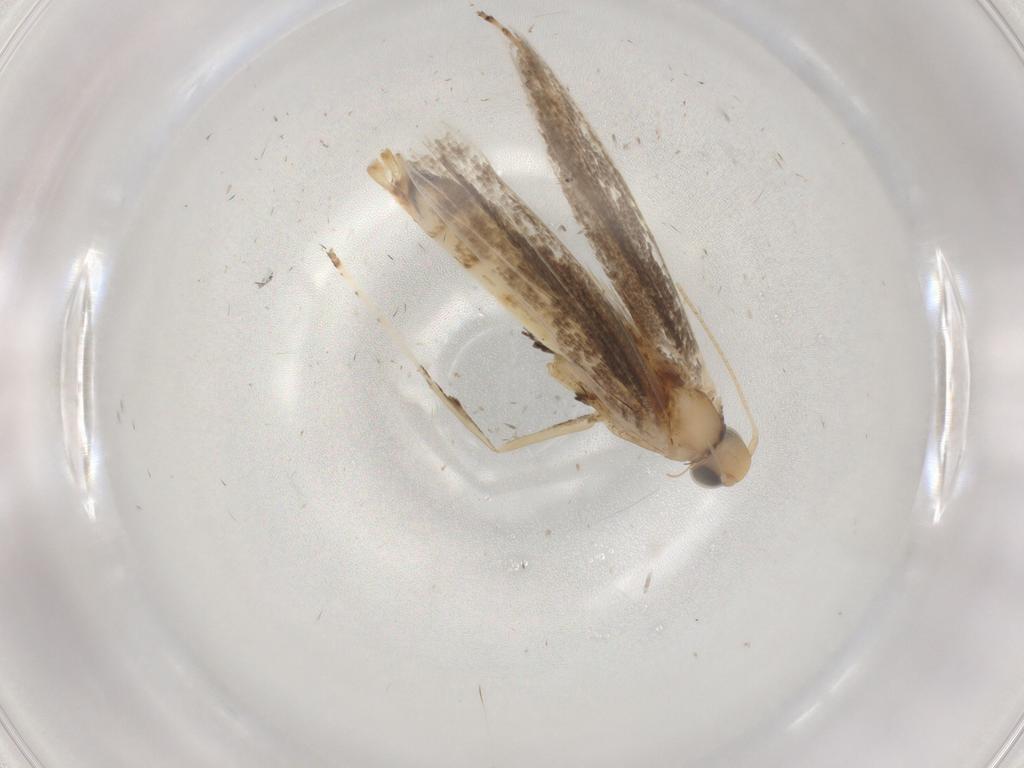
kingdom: Animalia
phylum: Arthropoda
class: Insecta
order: Lepidoptera
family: Gracillariidae
